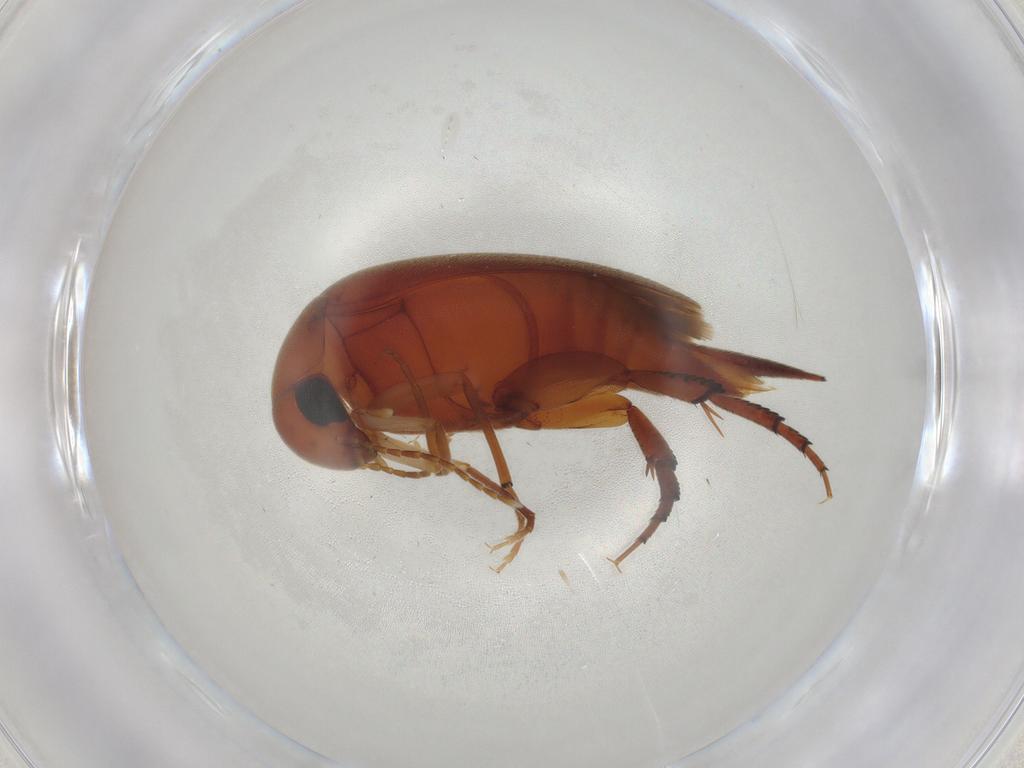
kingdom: Animalia
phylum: Arthropoda
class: Insecta
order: Coleoptera
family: Mordellidae
